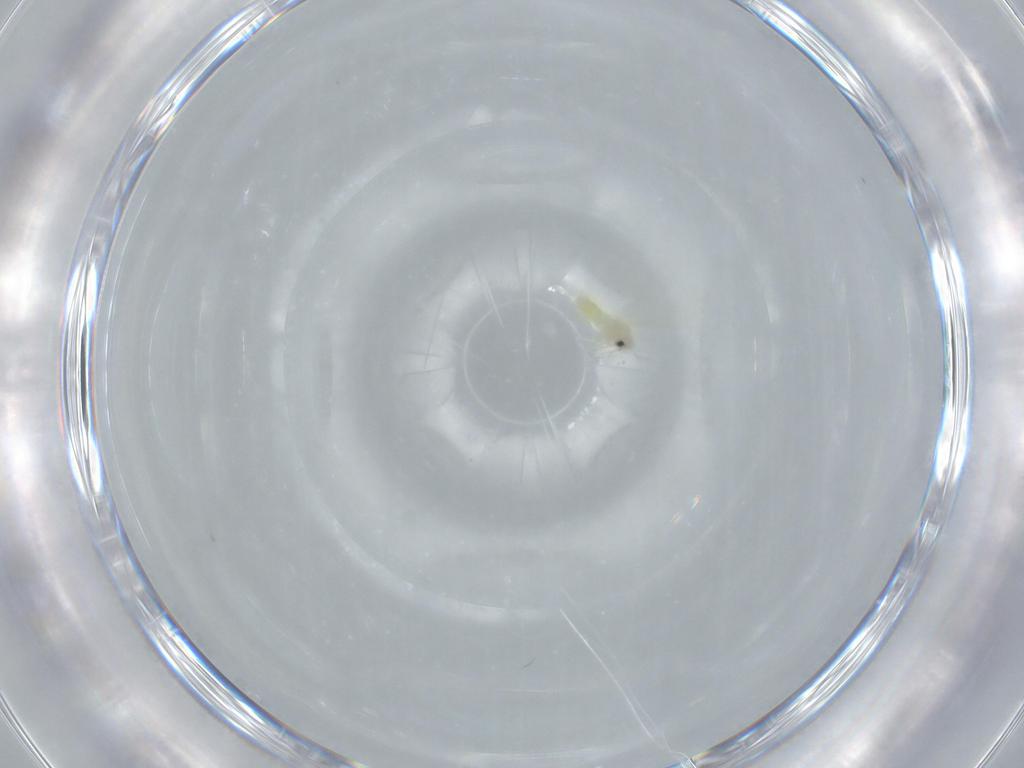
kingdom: Animalia
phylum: Arthropoda
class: Insecta
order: Hemiptera
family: Aleyrodidae
